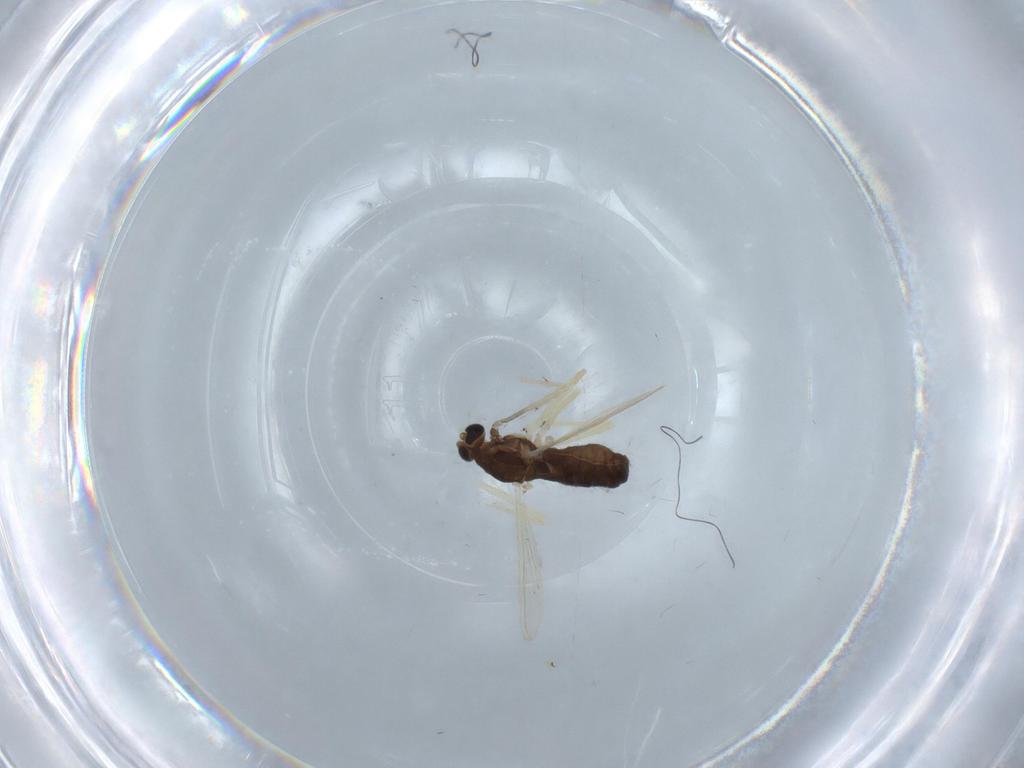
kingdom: Animalia
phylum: Arthropoda
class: Insecta
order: Diptera
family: Chironomidae
